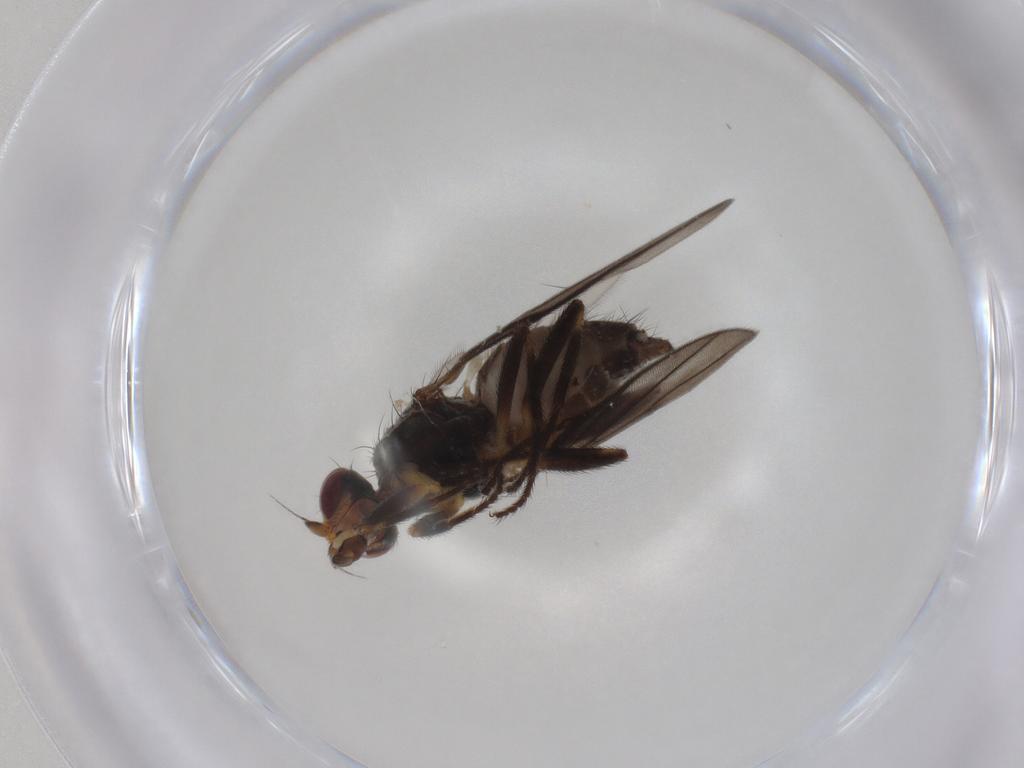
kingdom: Animalia
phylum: Arthropoda
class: Insecta
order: Diptera
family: Chloropidae
